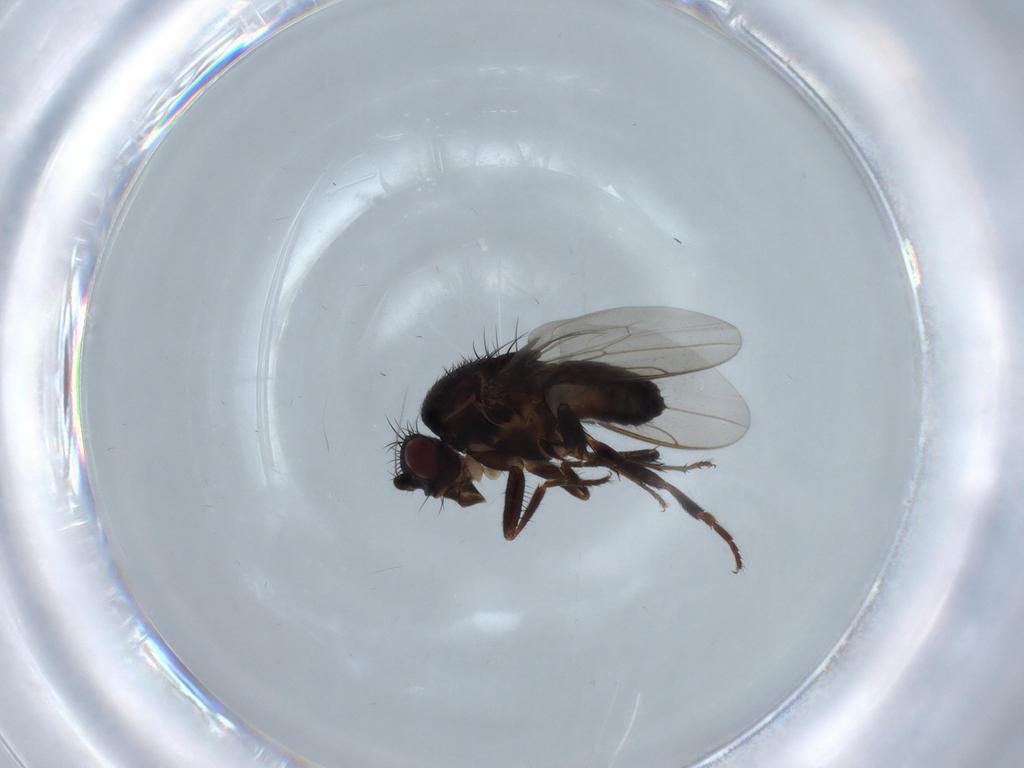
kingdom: Animalia
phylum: Arthropoda
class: Insecta
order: Diptera
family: Sphaeroceridae
